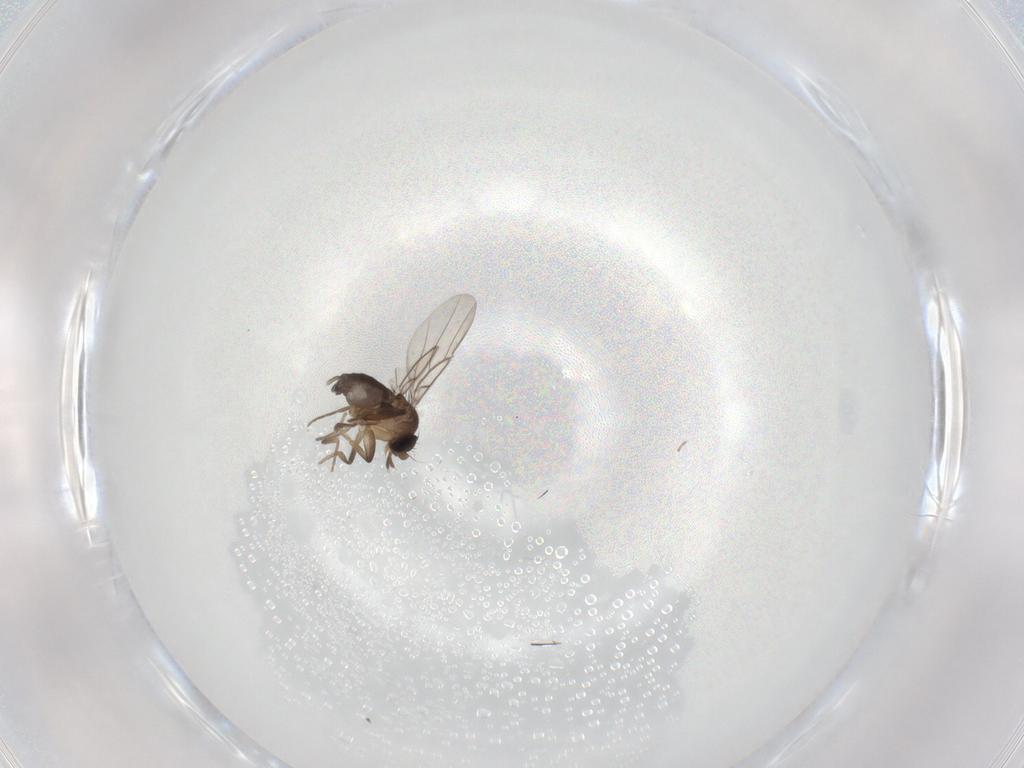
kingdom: Animalia
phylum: Arthropoda
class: Insecta
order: Diptera
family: Phoridae
